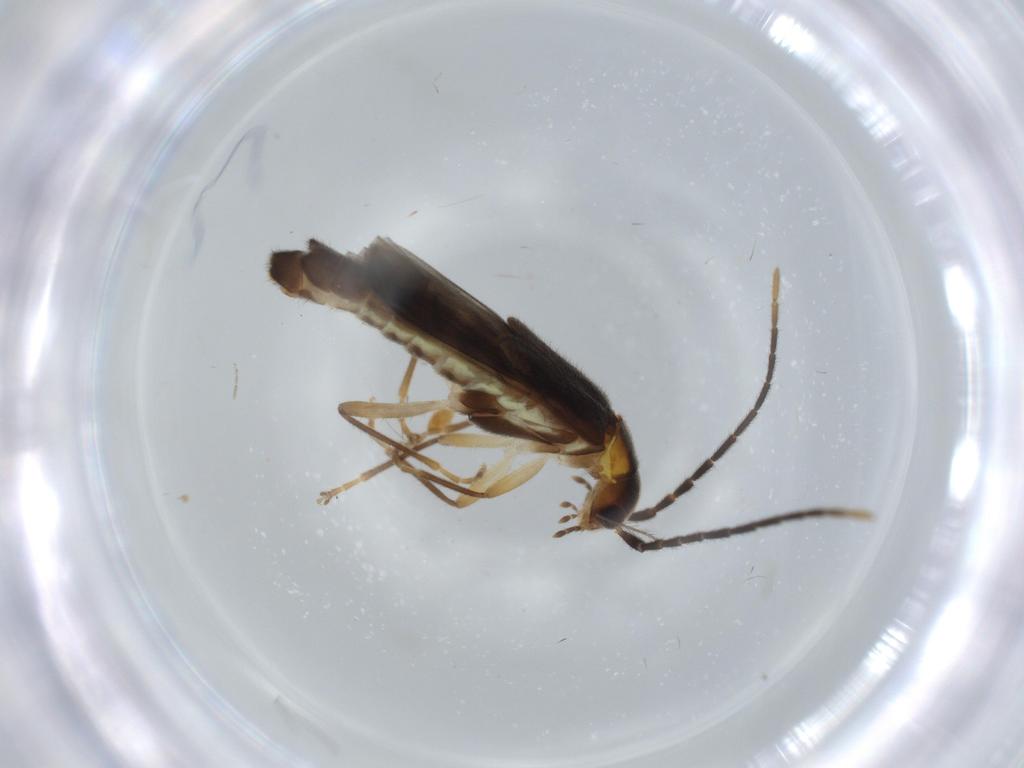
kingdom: Animalia
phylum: Arthropoda
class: Insecta
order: Coleoptera
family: Cantharidae
